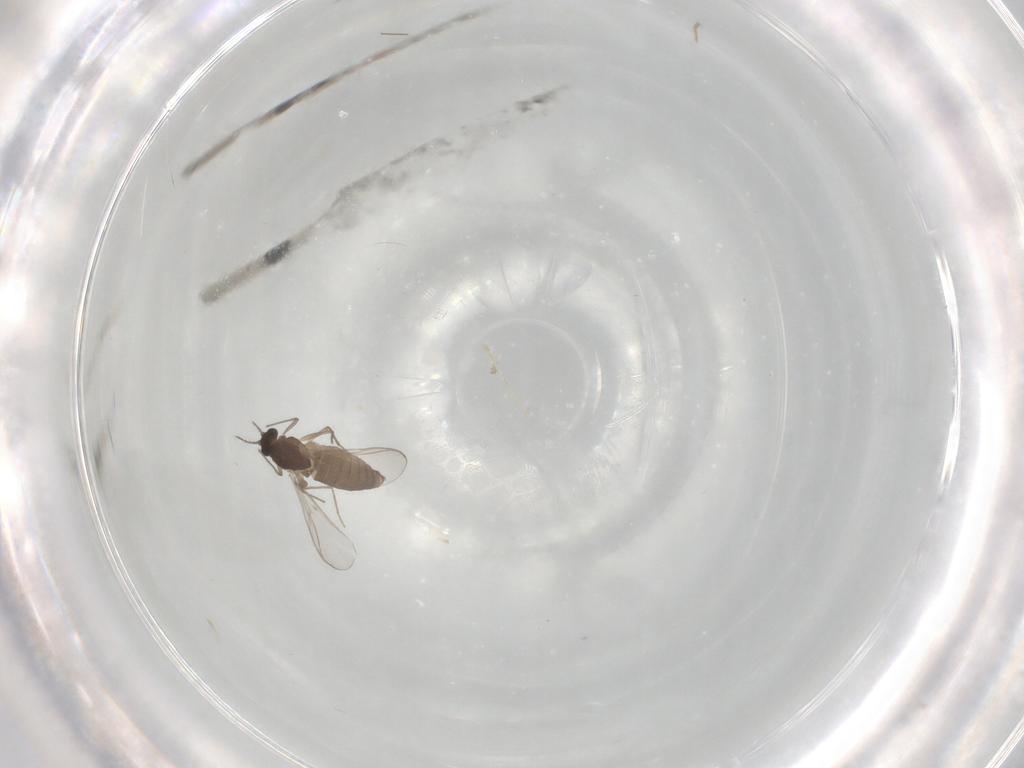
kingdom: Animalia
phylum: Arthropoda
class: Insecta
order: Diptera
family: Chironomidae
